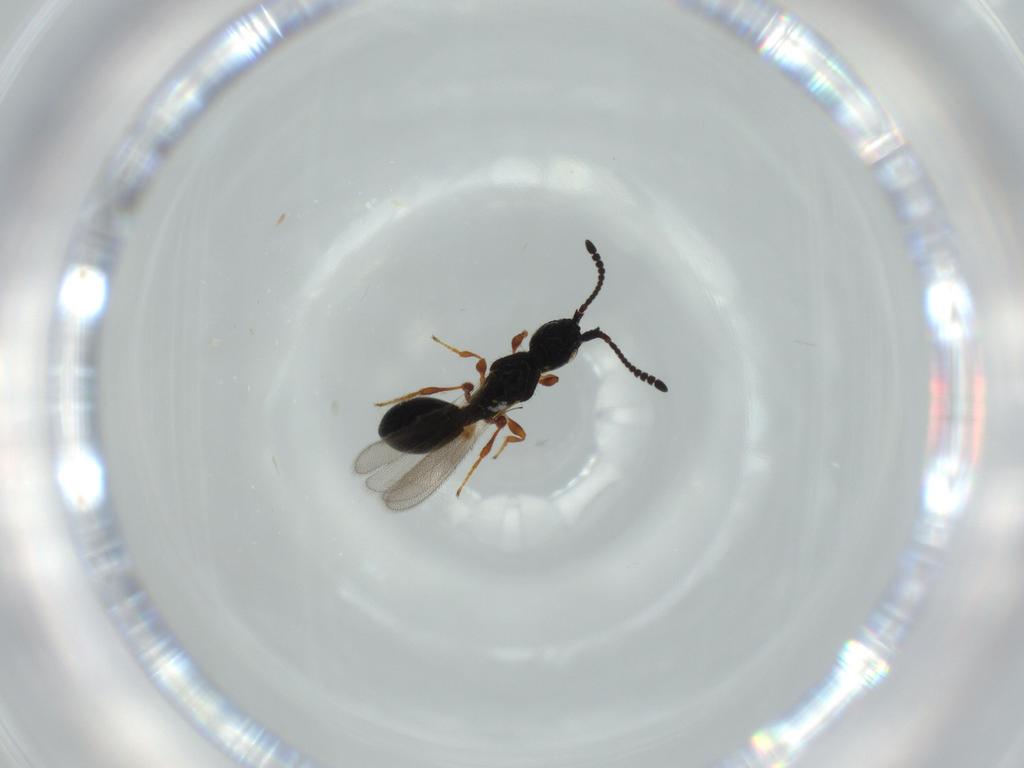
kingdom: Animalia
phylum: Arthropoda
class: Insecta
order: Hymenoptera
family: Diapriidae
